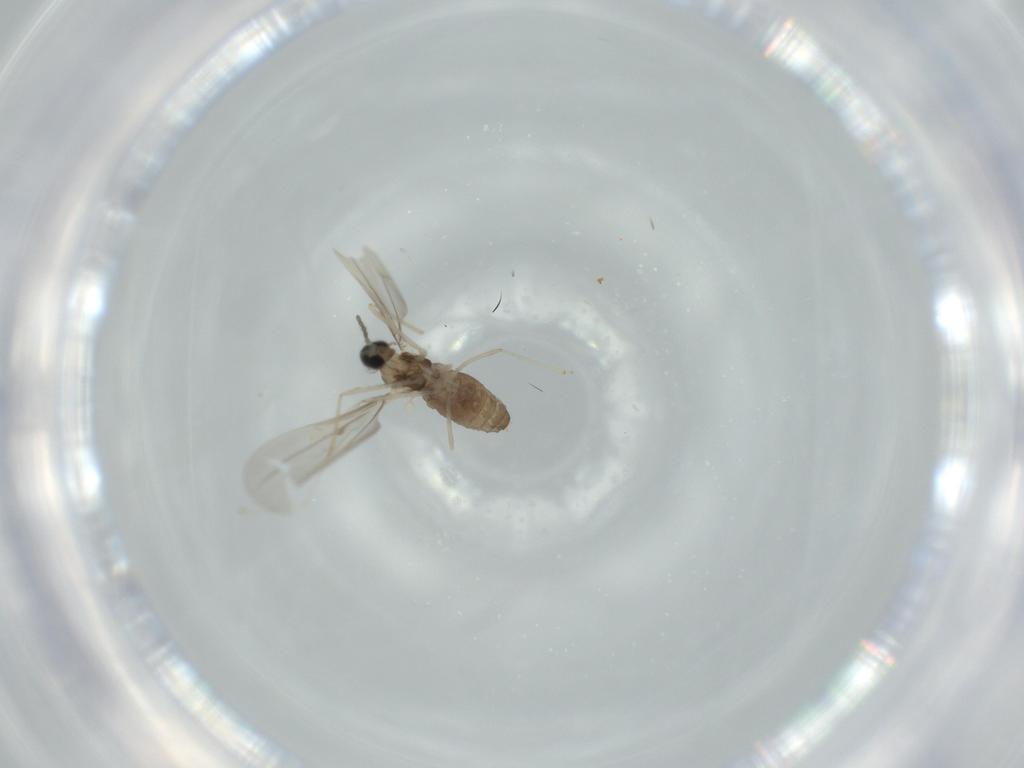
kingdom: Animalia
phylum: Arthropoda
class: Insecta
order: Diptera
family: Cecidomyiidae
